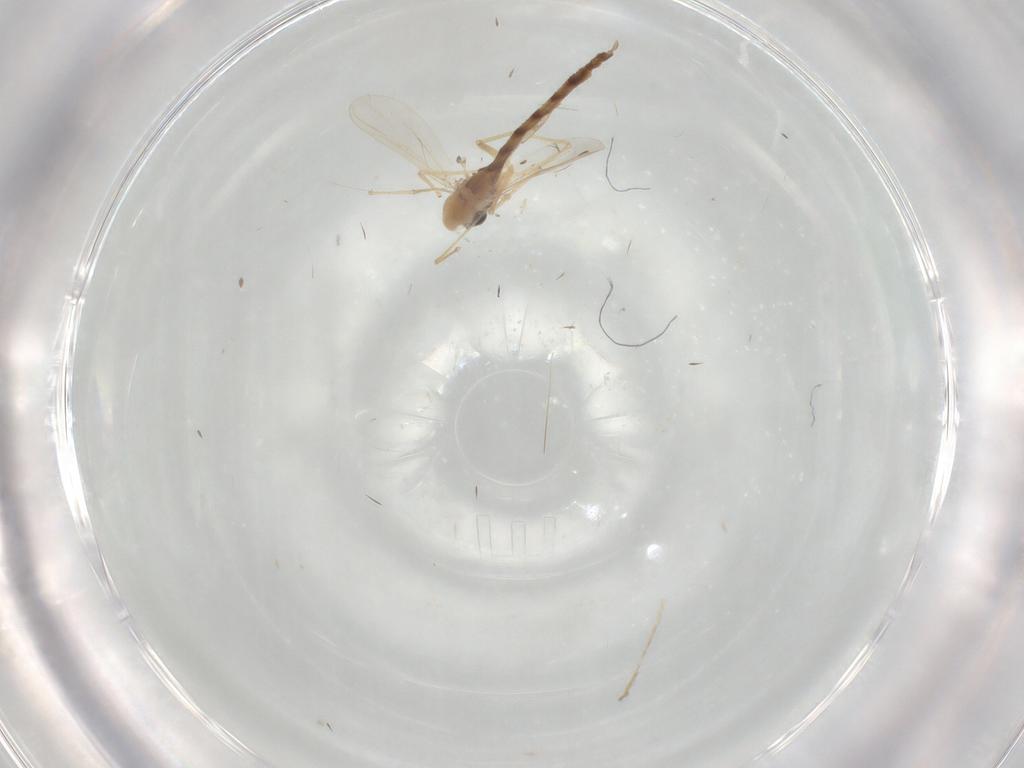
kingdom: Animalia
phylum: Arthropoda
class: Insecta
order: Diptera
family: Chironomidae
